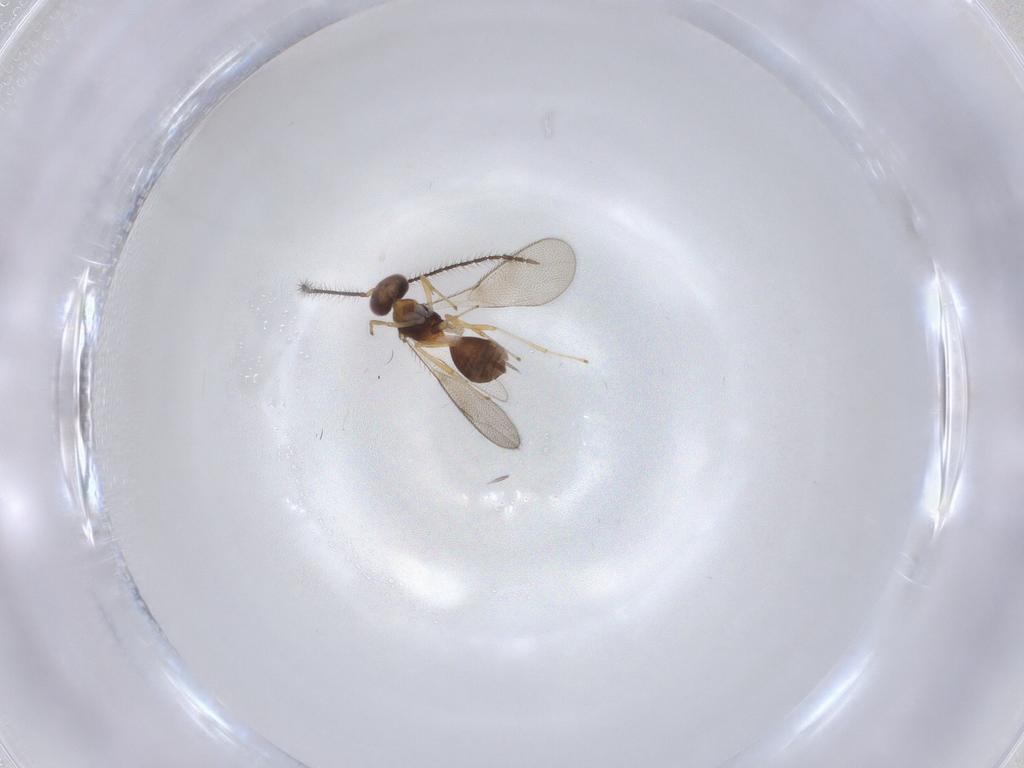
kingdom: Animalia
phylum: Arthropoda
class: Insecta
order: Hymenoptera
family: Diparidae
